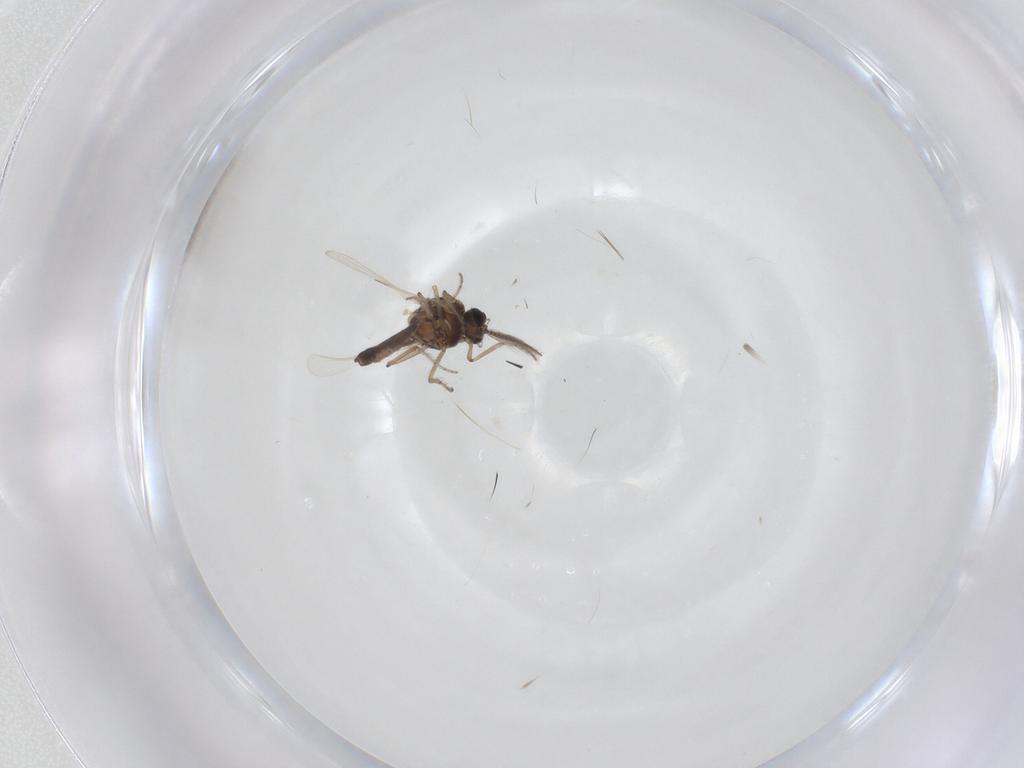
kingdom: Animalia
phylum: Arthropoda
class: Insecta
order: Diptera
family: Ceratopogonidae
